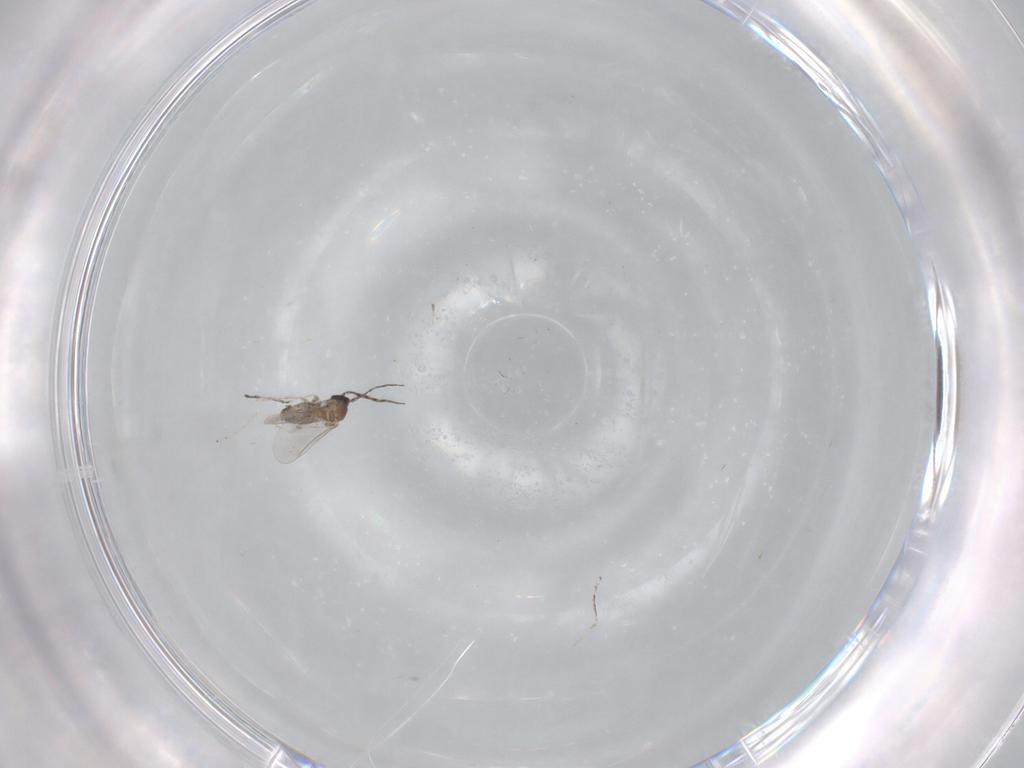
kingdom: Animalia
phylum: Arthropoda
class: Insecta
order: Diptera
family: Cecidomyiidae
